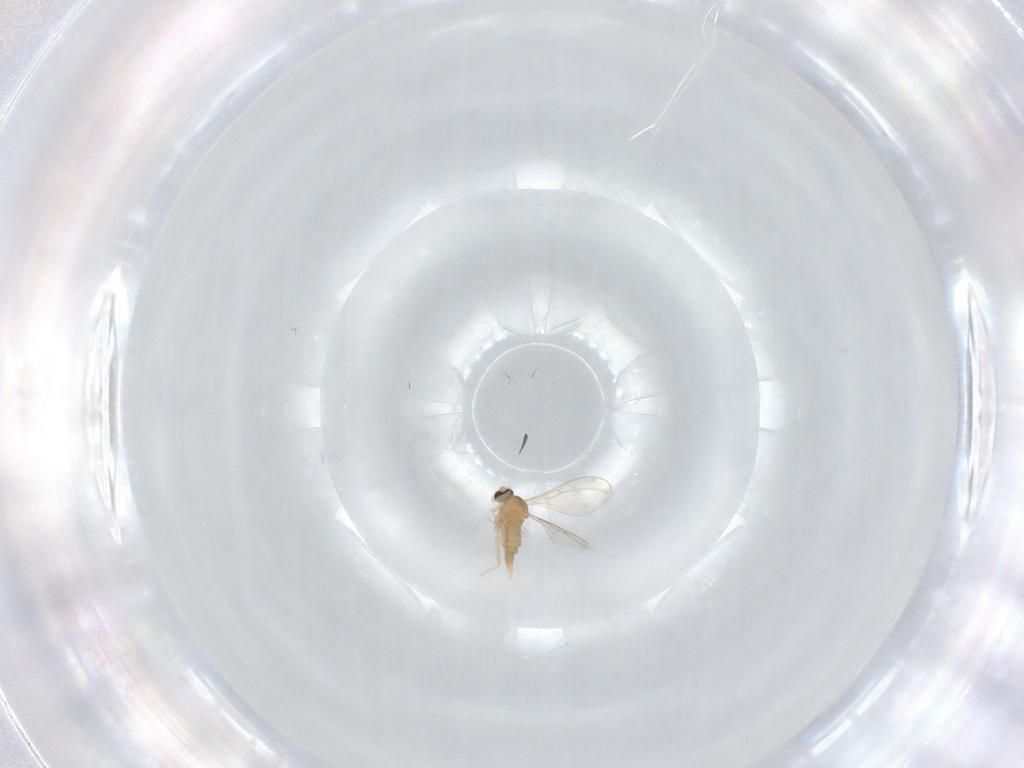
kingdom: Animalia
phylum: Arthropoda
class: Insecta
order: Diptera
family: Cecidomyiidae
